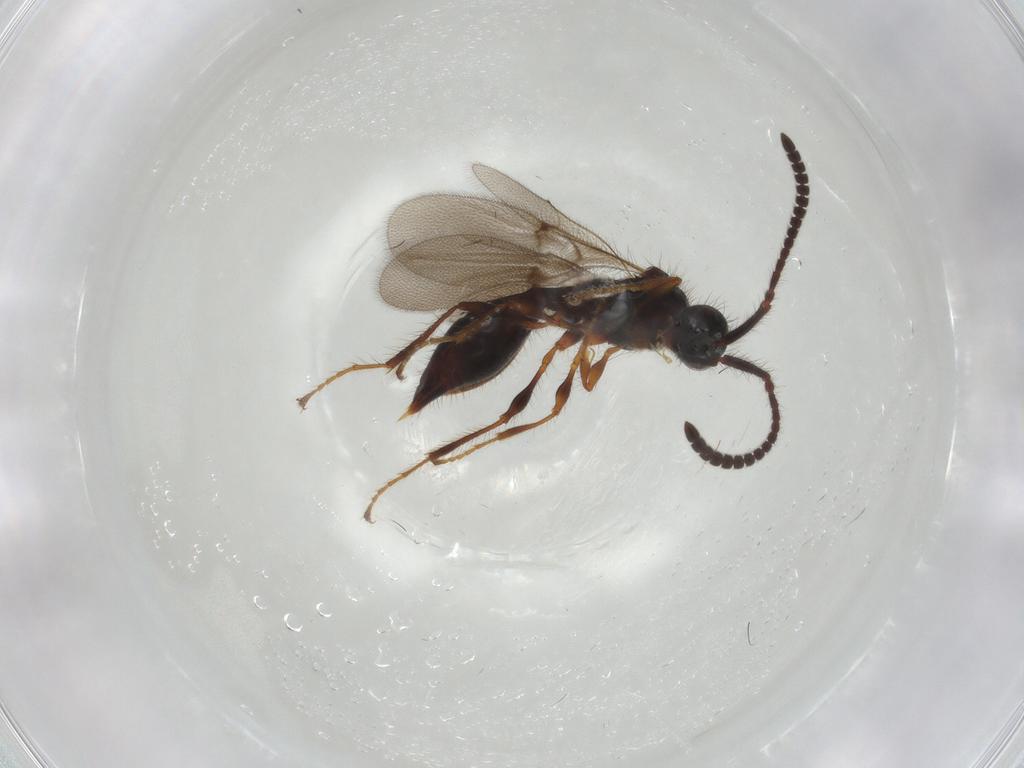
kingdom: Animalia
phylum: Arthropoda
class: Insecta
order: Hymenoptera
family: Diapriidae
